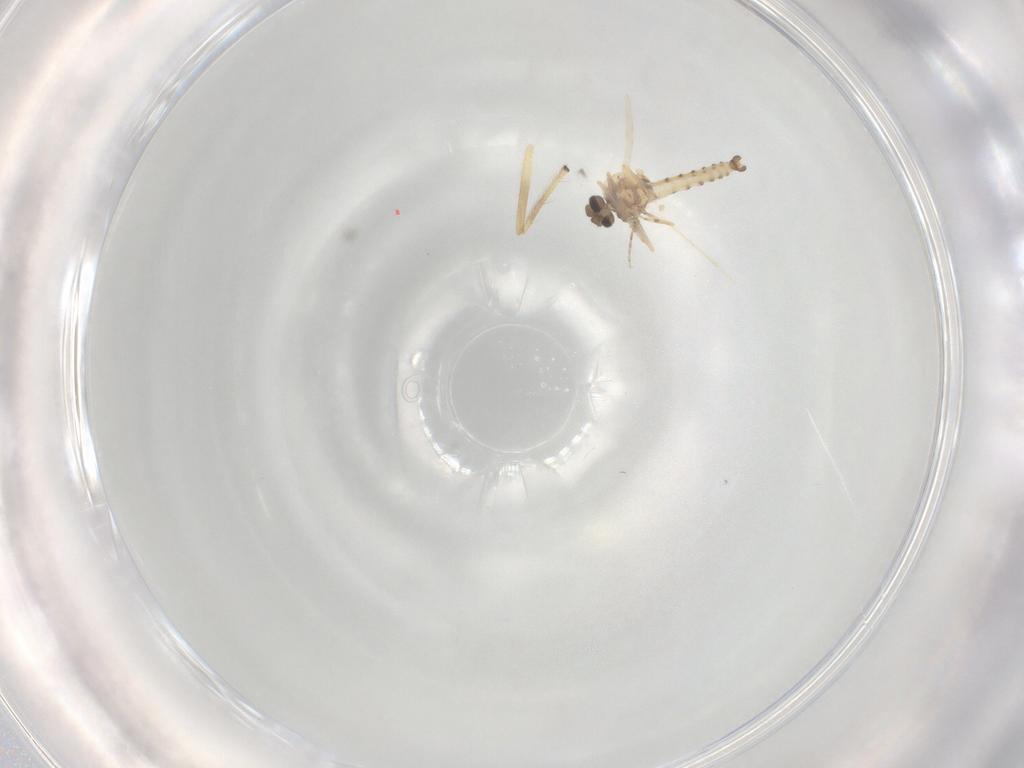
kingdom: Animalia
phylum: Arthropoda
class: Insecta
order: Diptera
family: Chironomidae
